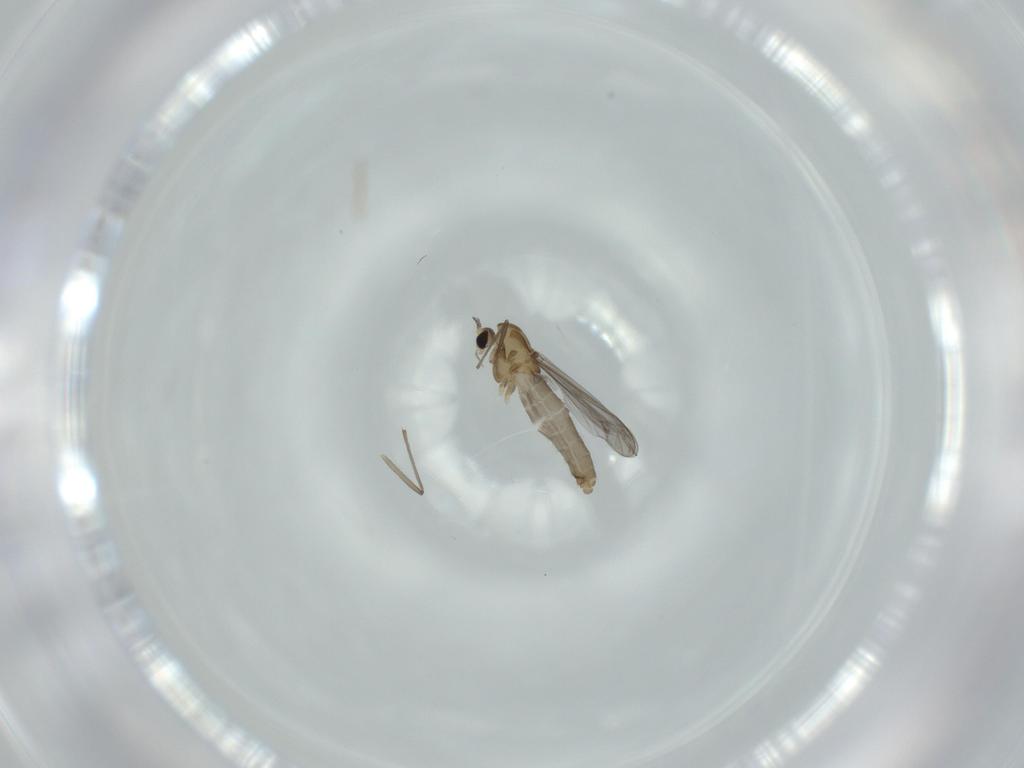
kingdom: Animalia
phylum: Arthropoda
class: Insecta
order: Diptera
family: Chironomidae
